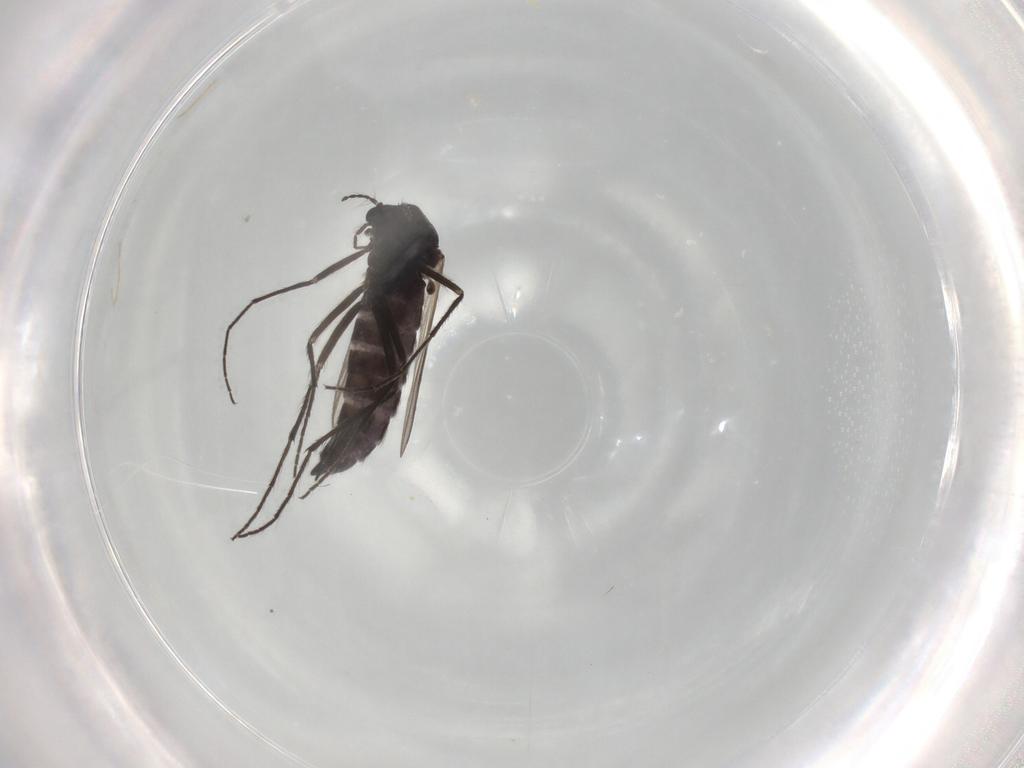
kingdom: Animalia
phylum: Arthropoda
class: Insecta
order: Diptera
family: Chironomidae
